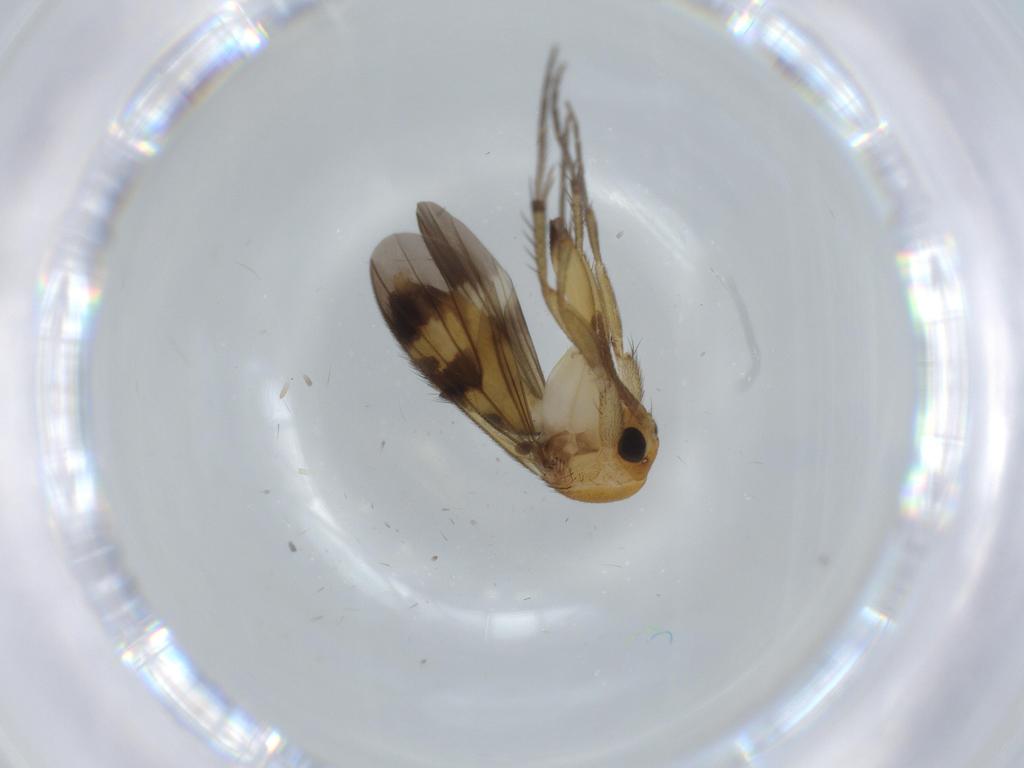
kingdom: Animalia
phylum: Arthropoda
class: Insecta
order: Diptera
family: Mycetophilidae
